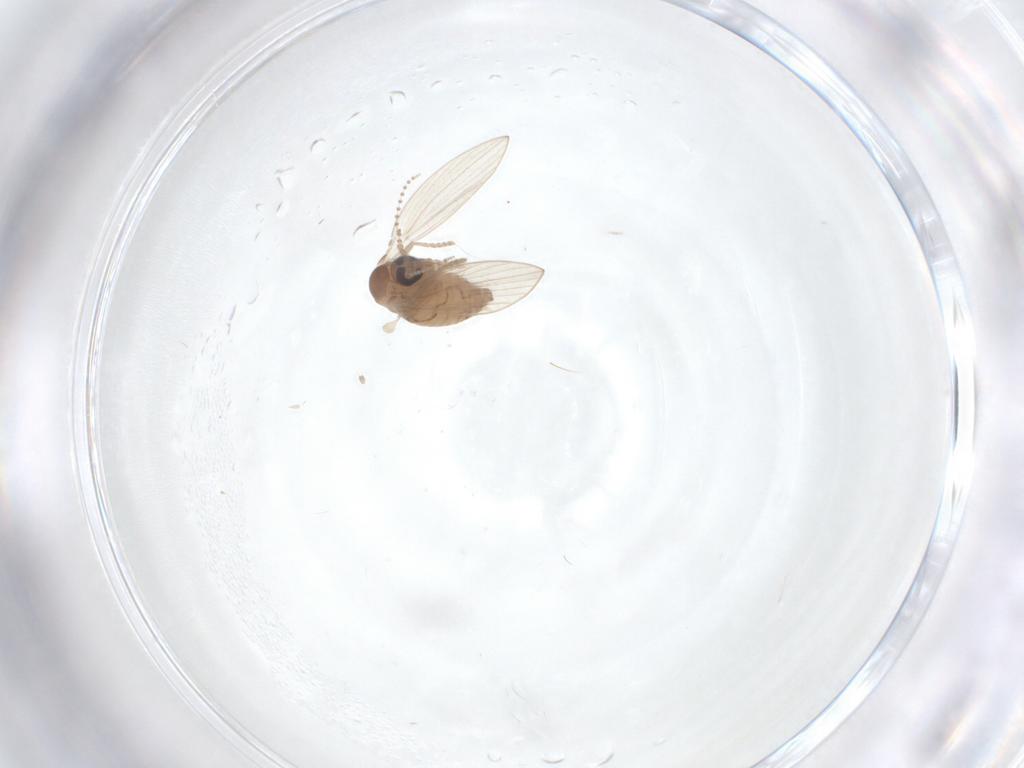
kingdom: Animalia
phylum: Arthropoda
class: Insecta
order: Diptera
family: Psychodidae
